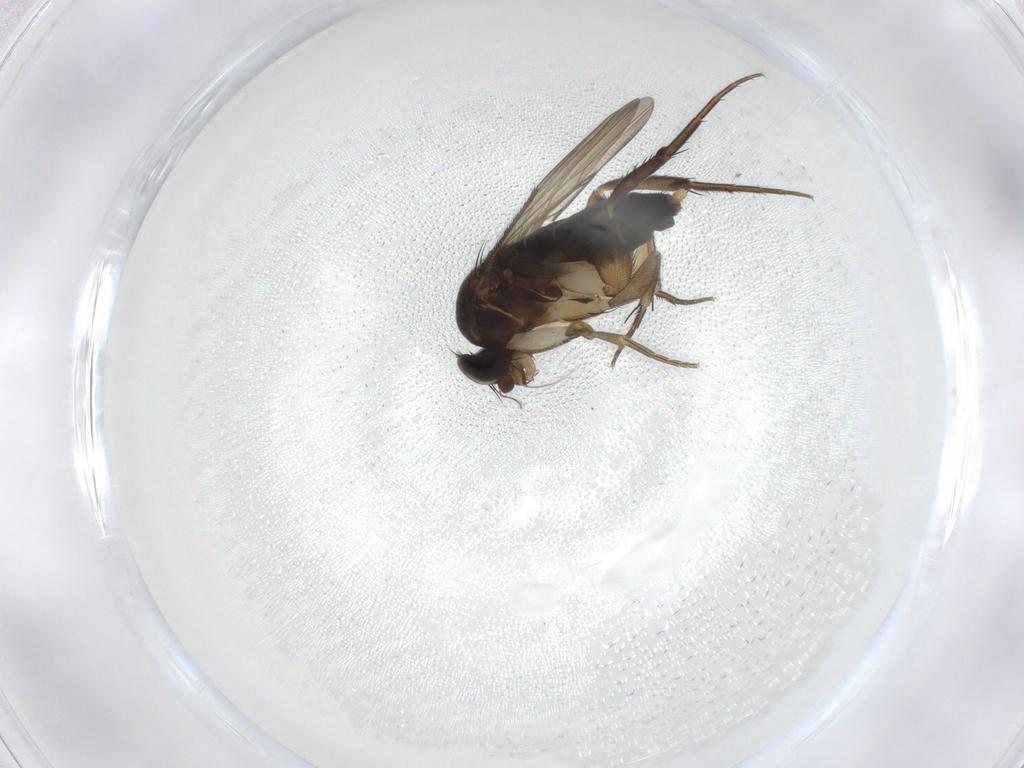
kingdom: Animalia
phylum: Arthropoda
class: Insecta
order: Diptera
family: Phoridae
